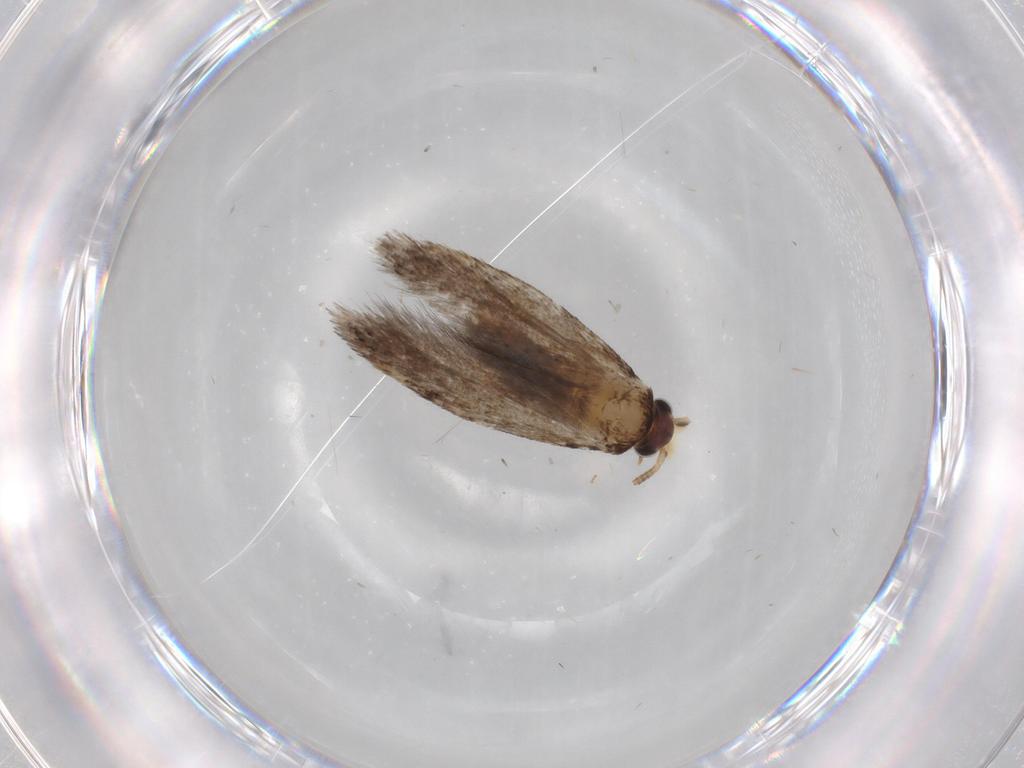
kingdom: Animalia
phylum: Arthropoda
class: Insecta
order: Lepidoptera
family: Tineidae
